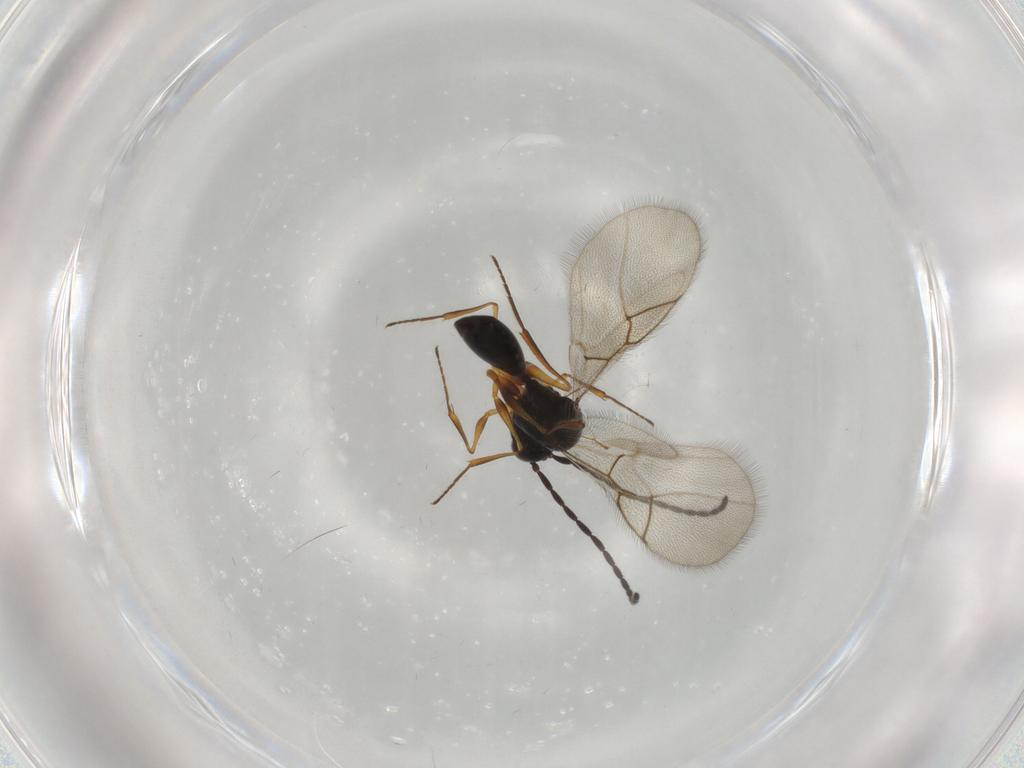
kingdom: Animalia
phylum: Arthropoda
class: Insecta
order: Hymenoptera
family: Figitidae
